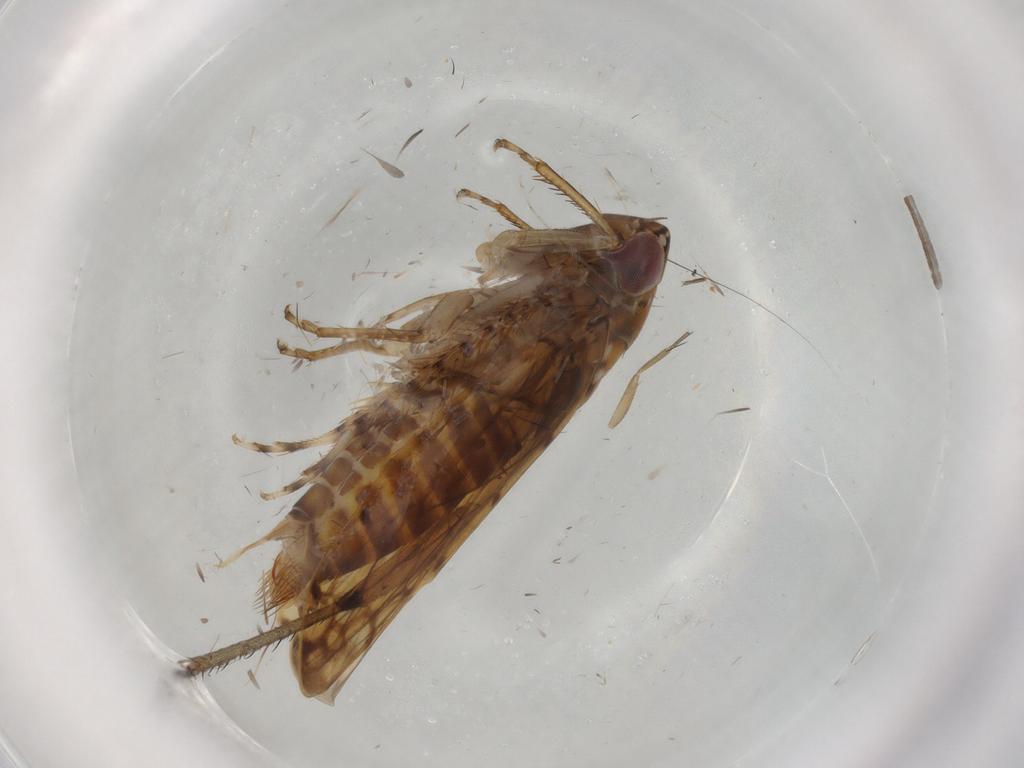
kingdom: Animalia
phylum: Arthropoda
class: Insecta
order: Hemiptera
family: Cicadellidae
